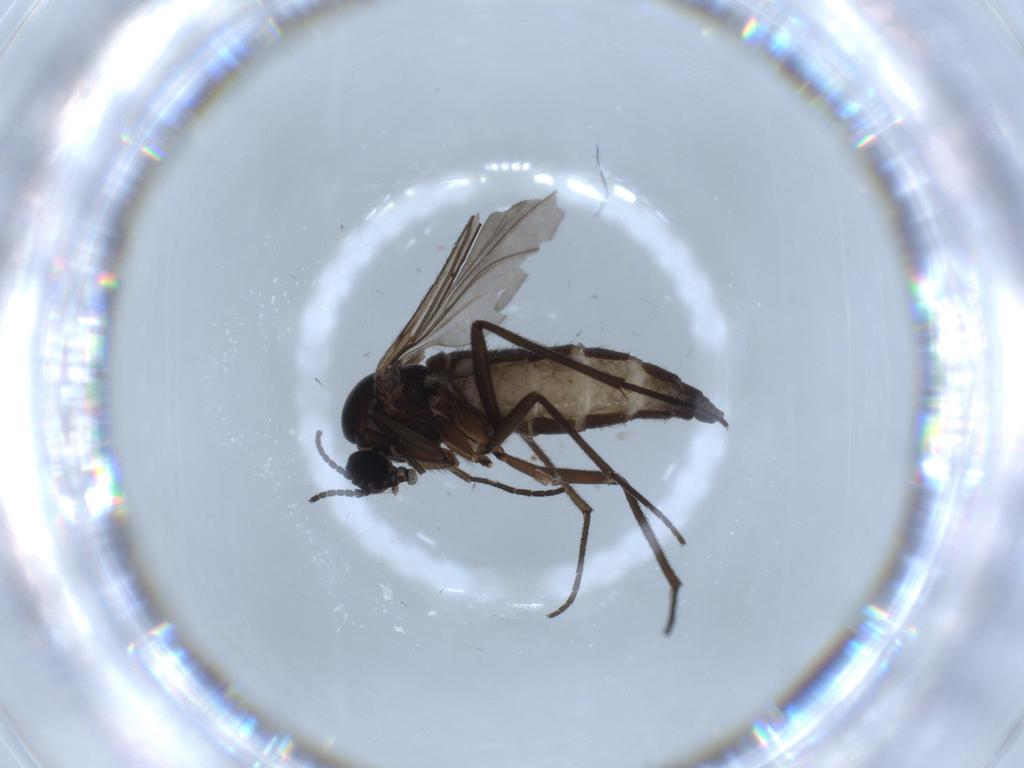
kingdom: Animalia
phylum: Arthropoda
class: Insecta
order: Diptera
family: Sciaridae
